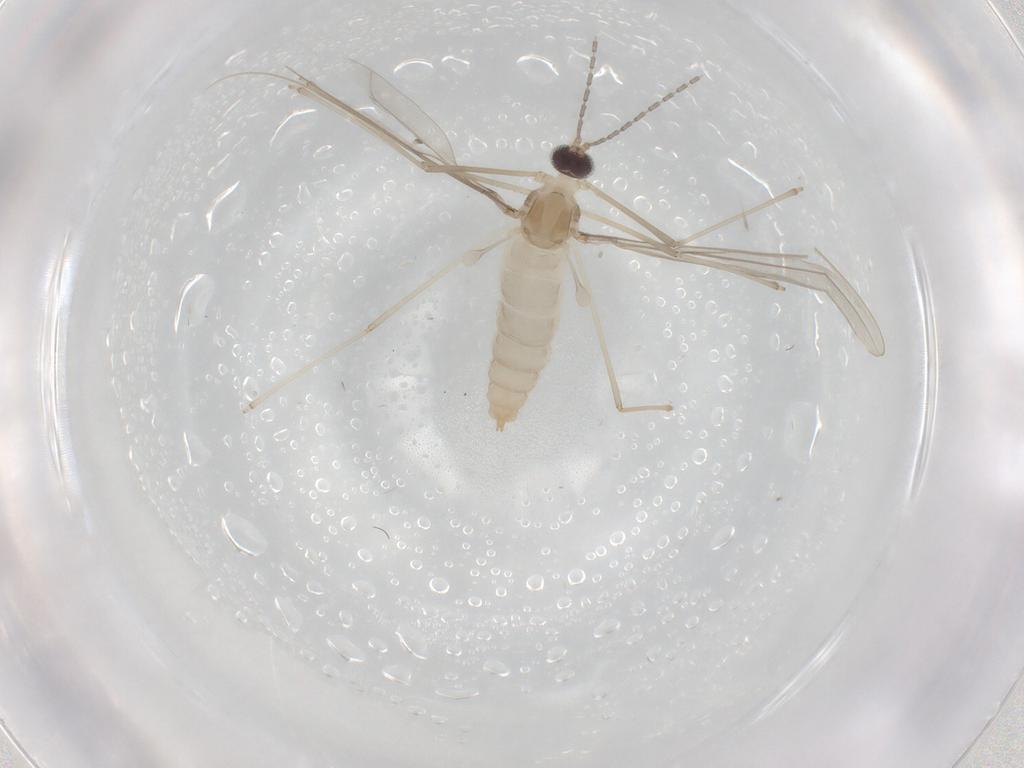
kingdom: Animalia
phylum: Arthropoda
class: Insecta
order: Diptera
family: Cecidomyiidae
